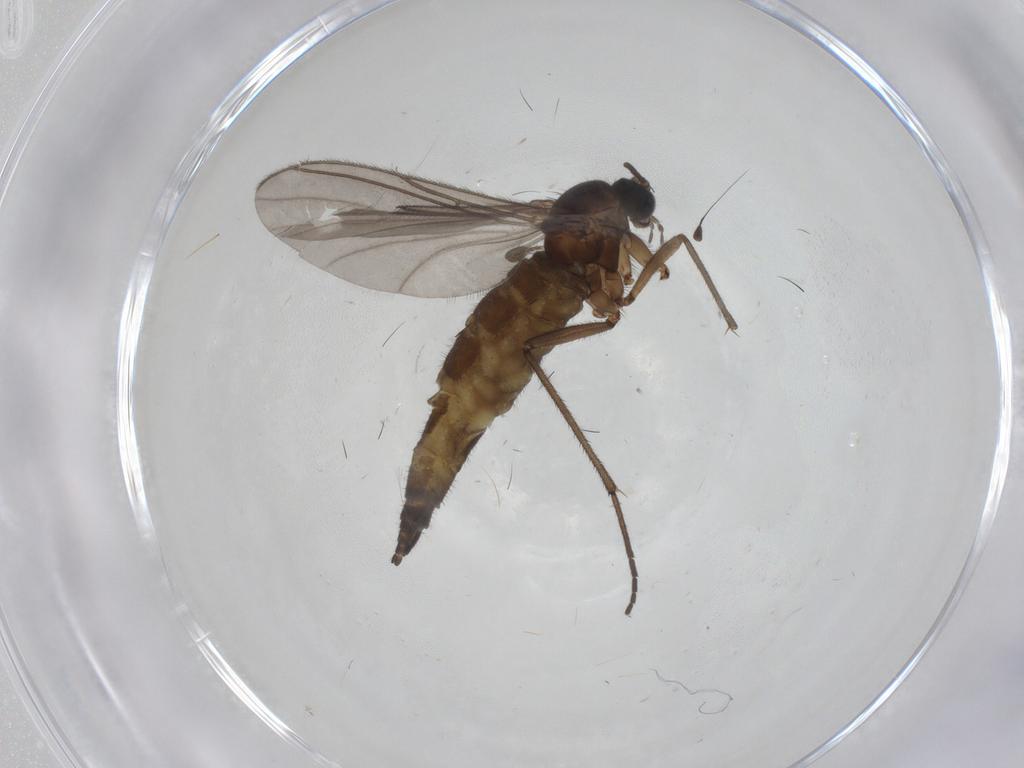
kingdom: Animalia
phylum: Arthropoda
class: Insecta
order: Diptera
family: Sciaridae
